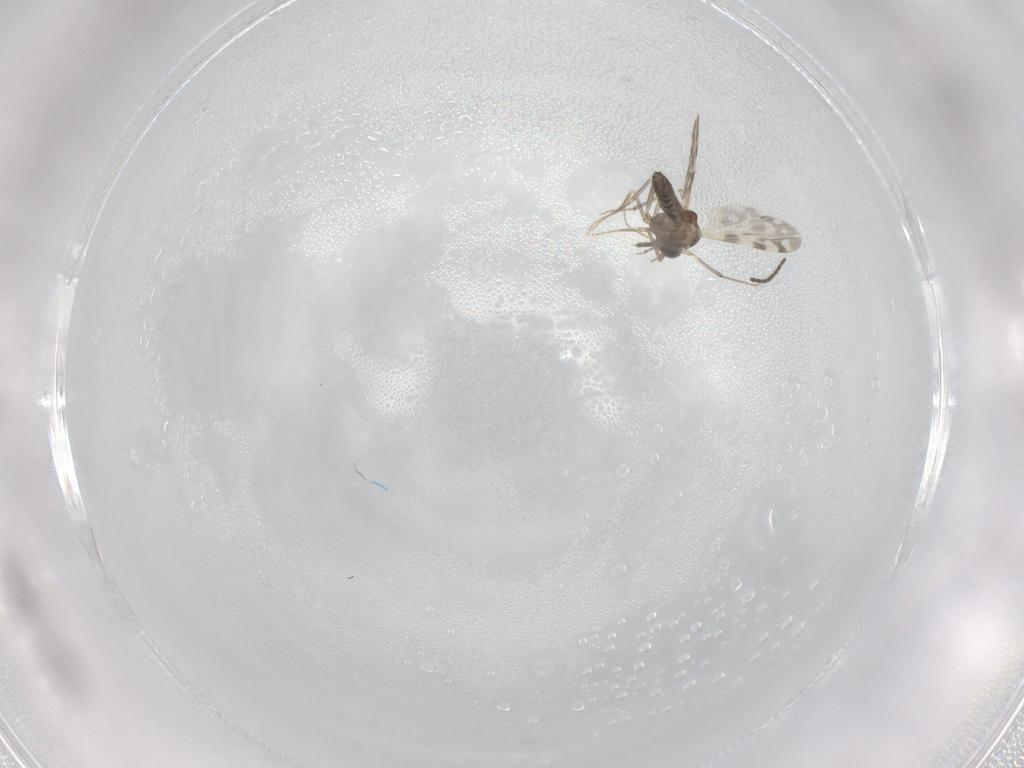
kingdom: Animalia
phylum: Arthropoda
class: Insecta
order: Diptera
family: Ceratopogonidae
